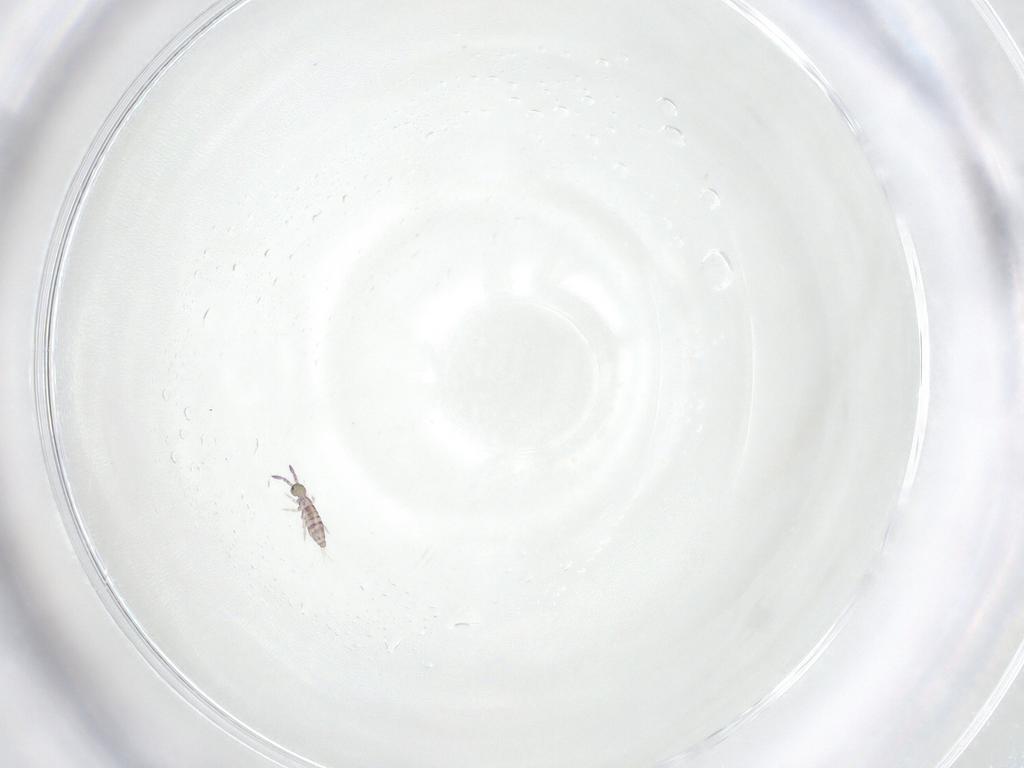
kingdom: Animalia
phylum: Arthropoda
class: Collembola
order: Entomobryomorpha
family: Entomobryidae
